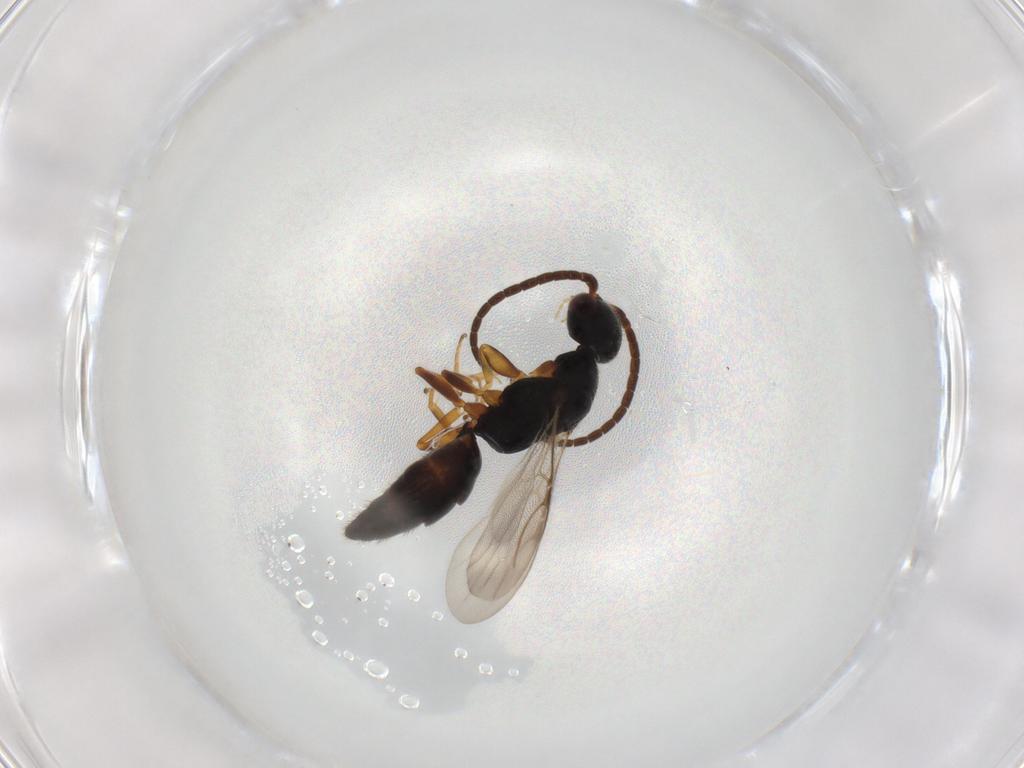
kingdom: Animalia
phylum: Arthropoda
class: Insecta
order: Hymenoptera
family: Bethylidae
